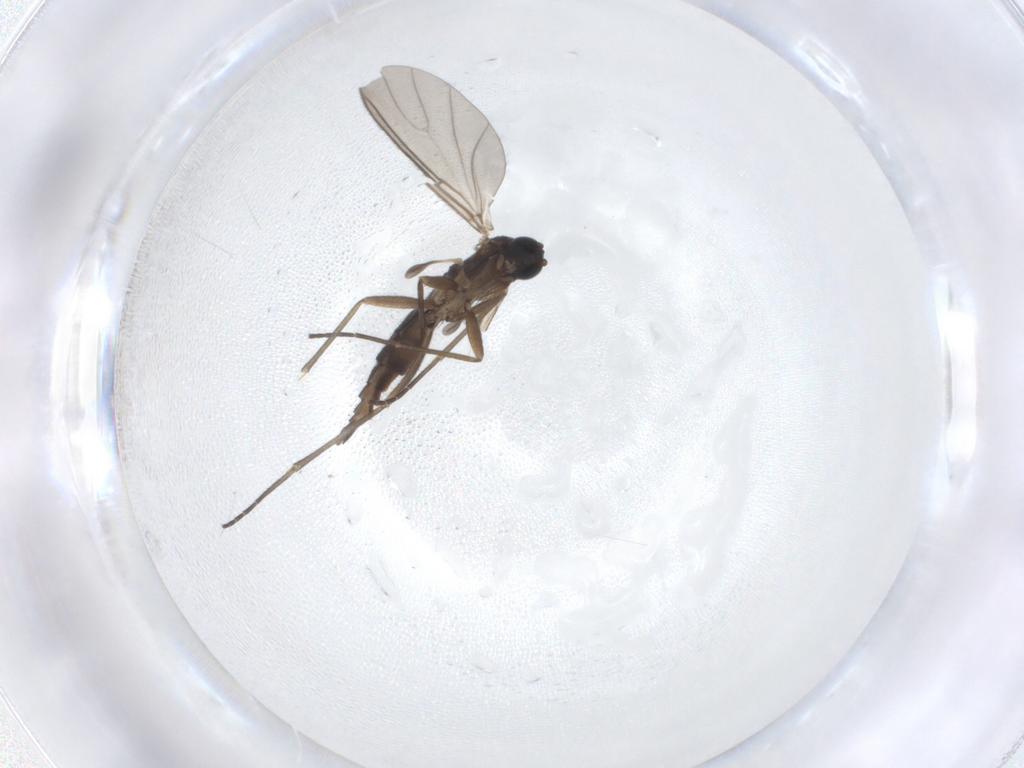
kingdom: Animalia
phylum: Arthropoda
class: Insecta
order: Diptera
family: Sciaridae
